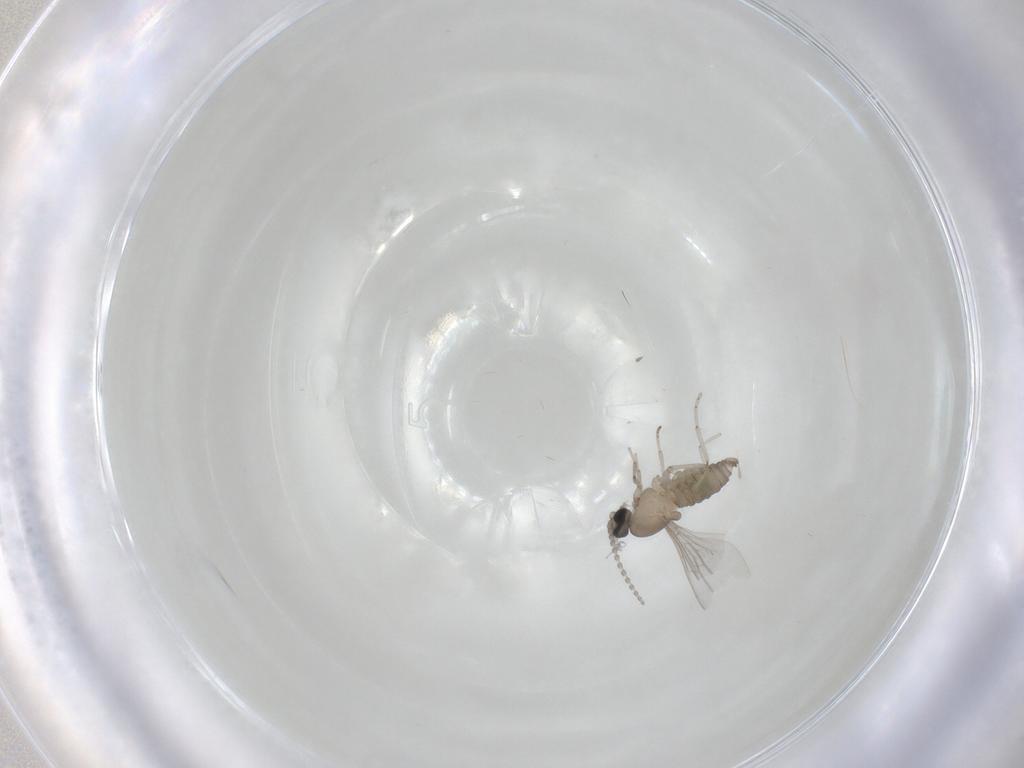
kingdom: Animalia
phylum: Arthropoda
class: Insecta
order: Diptera
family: Cecidomyiidae
